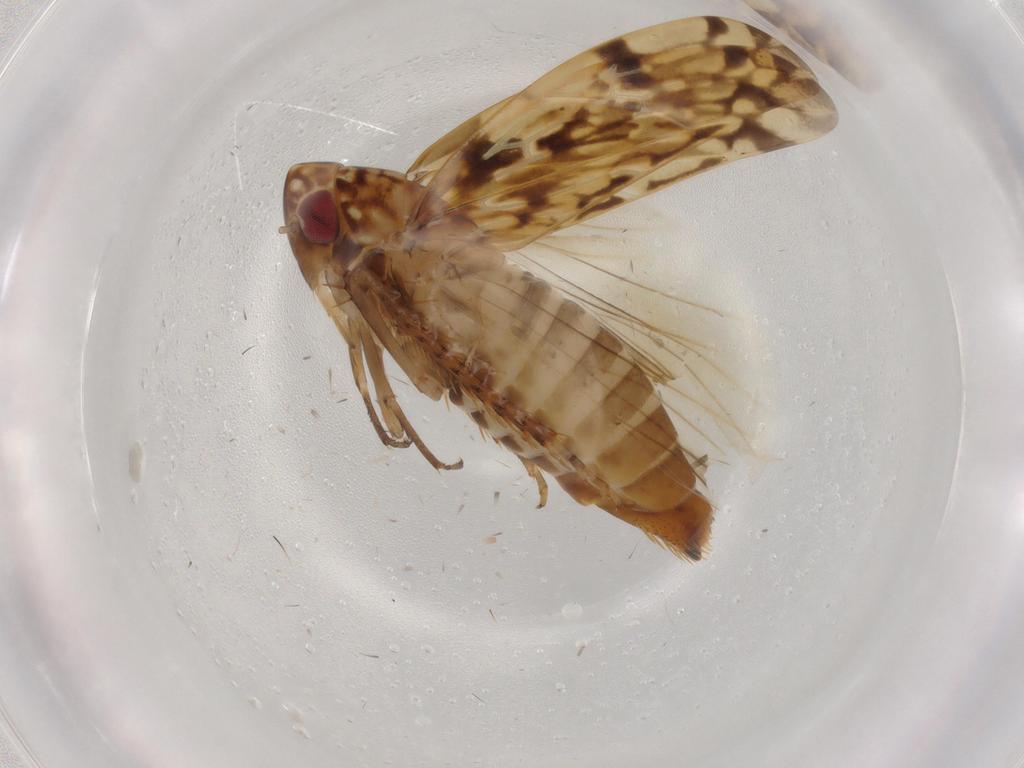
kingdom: Animalia
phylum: Arthropoda
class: Insecta
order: Hemiptera
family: Cicadellidae
